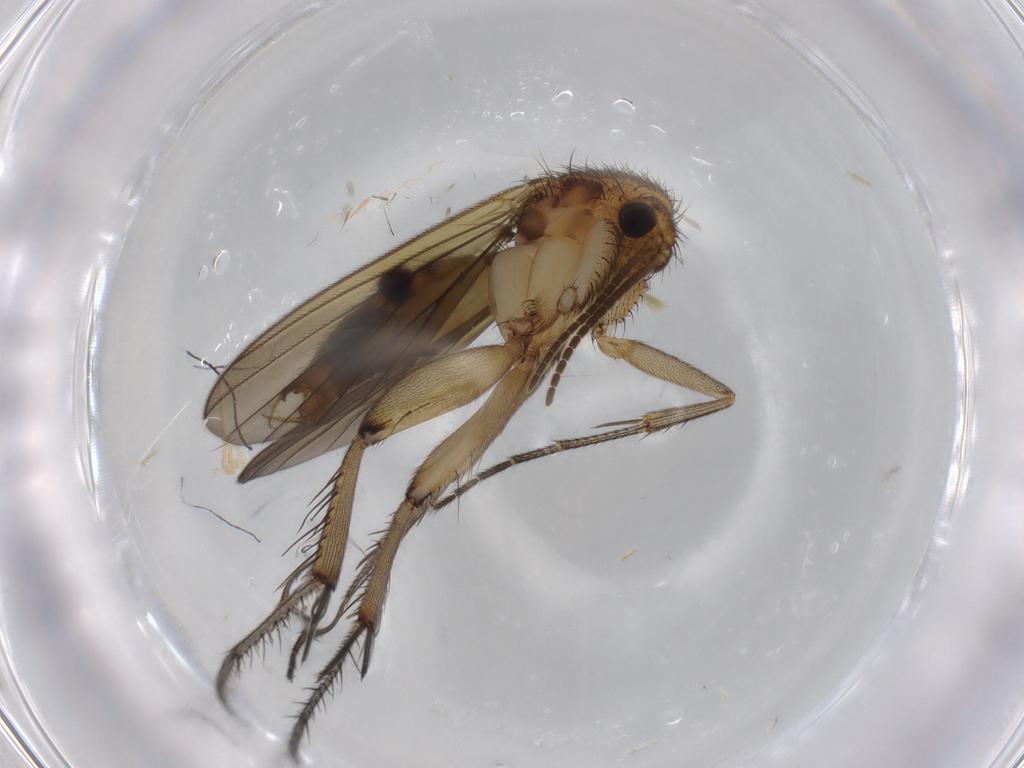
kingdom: Animalia
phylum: Arthropoda
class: Insecta
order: Diptera
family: Mycetophilidae
